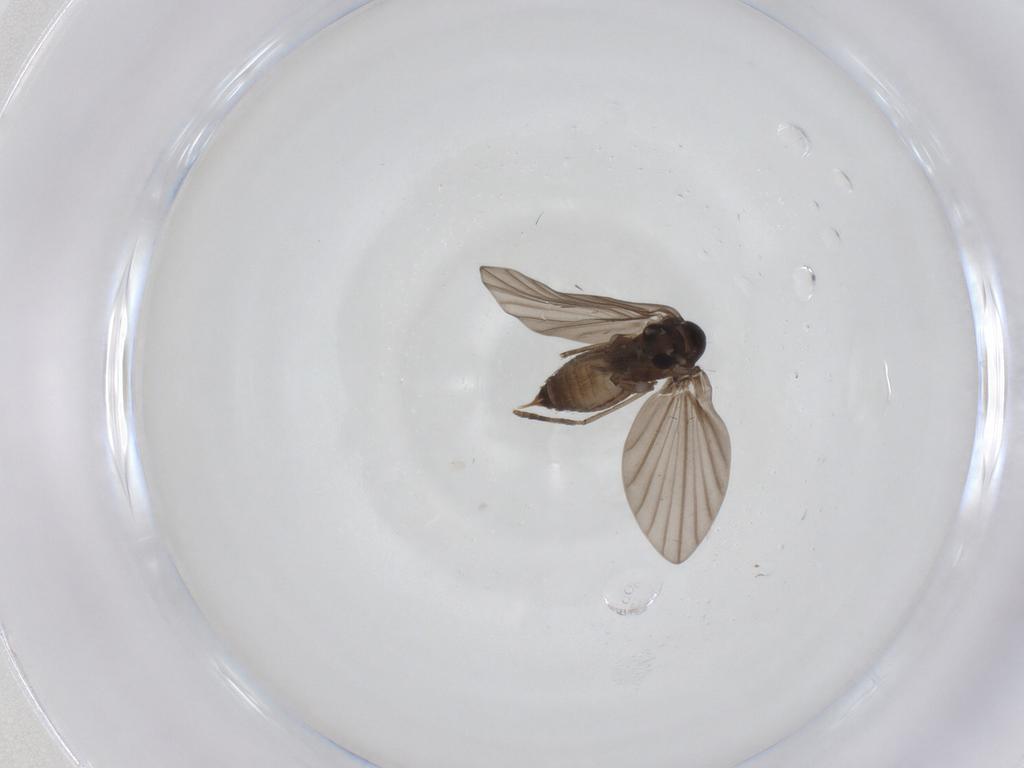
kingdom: Animalia
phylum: Arthropoda
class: Insecta
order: Diptera
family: Psychodidae
